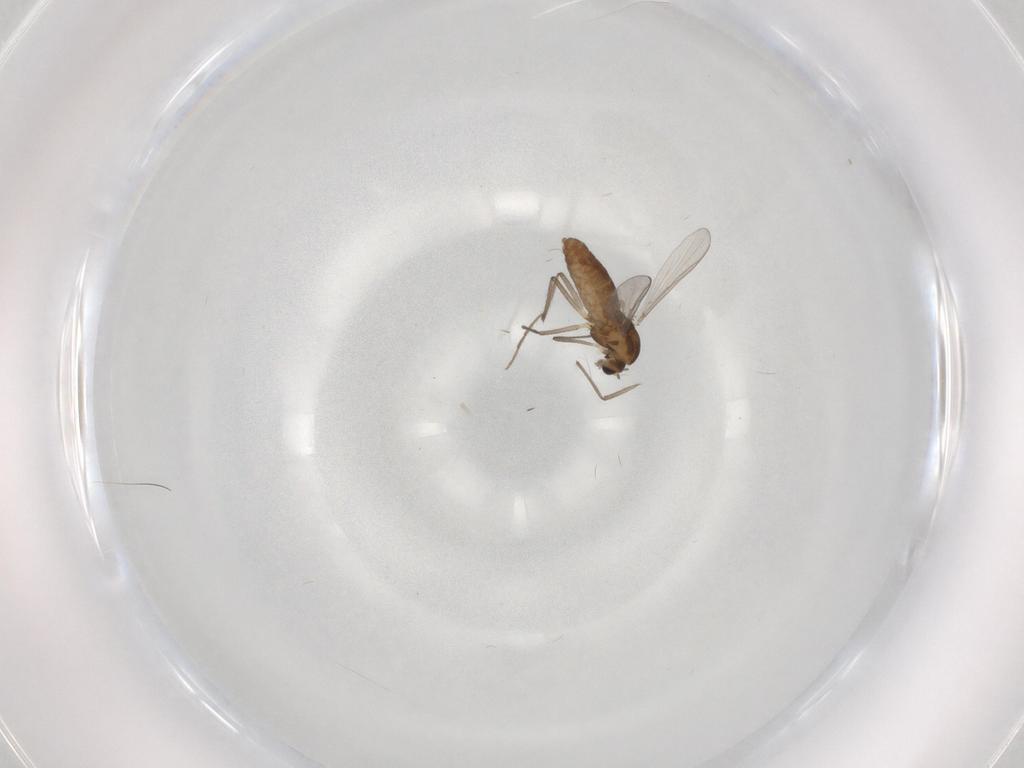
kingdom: Animalia
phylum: Arthropoda
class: Insecta
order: Diptera
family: Chironomidae
